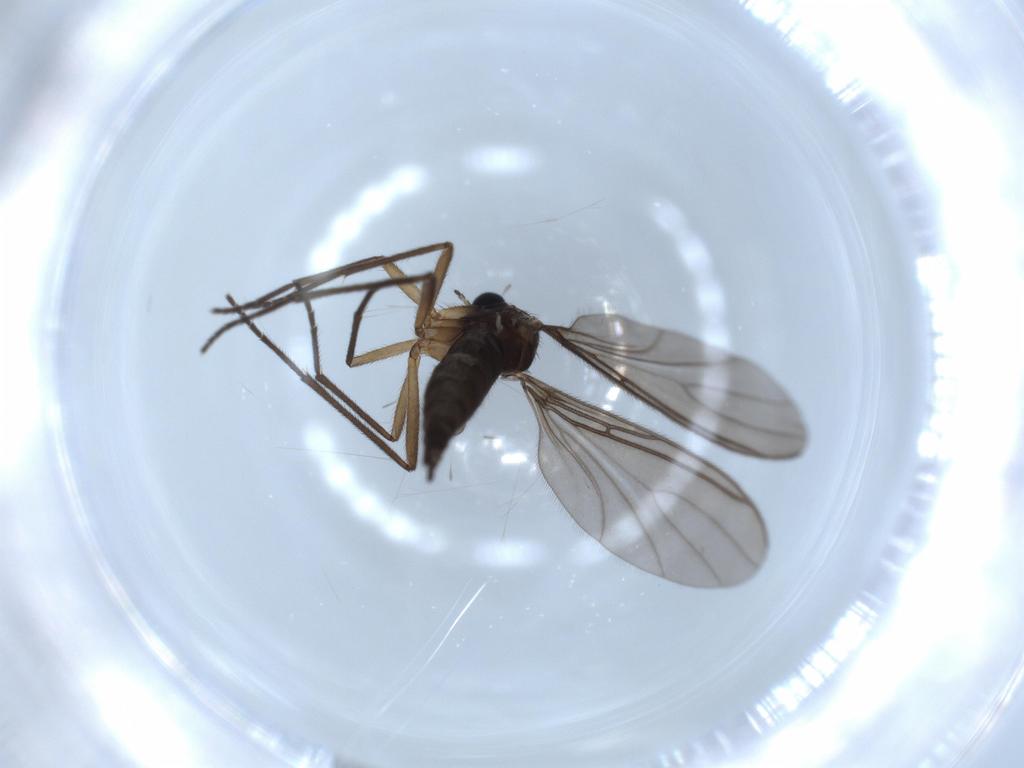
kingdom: Animalia
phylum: Arthropoda
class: Insecta
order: Diptera
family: Sciaridae
